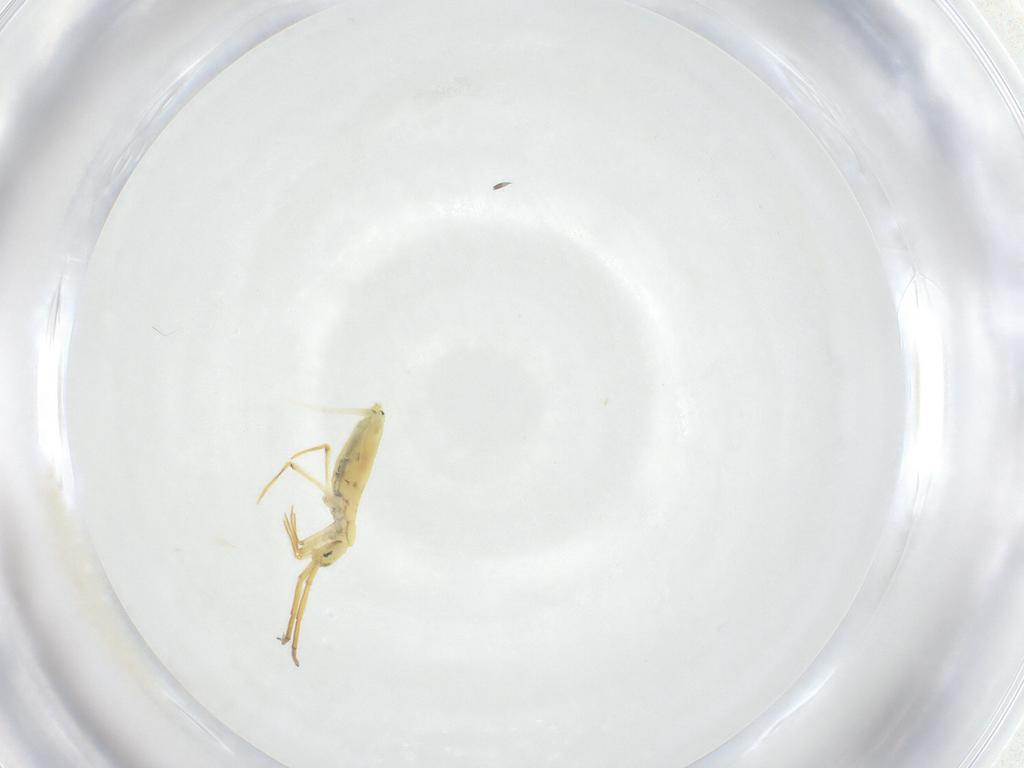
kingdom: Animalia
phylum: Arthropoda
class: Collembola
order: Entomobryomorpha
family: Entomobryidae
